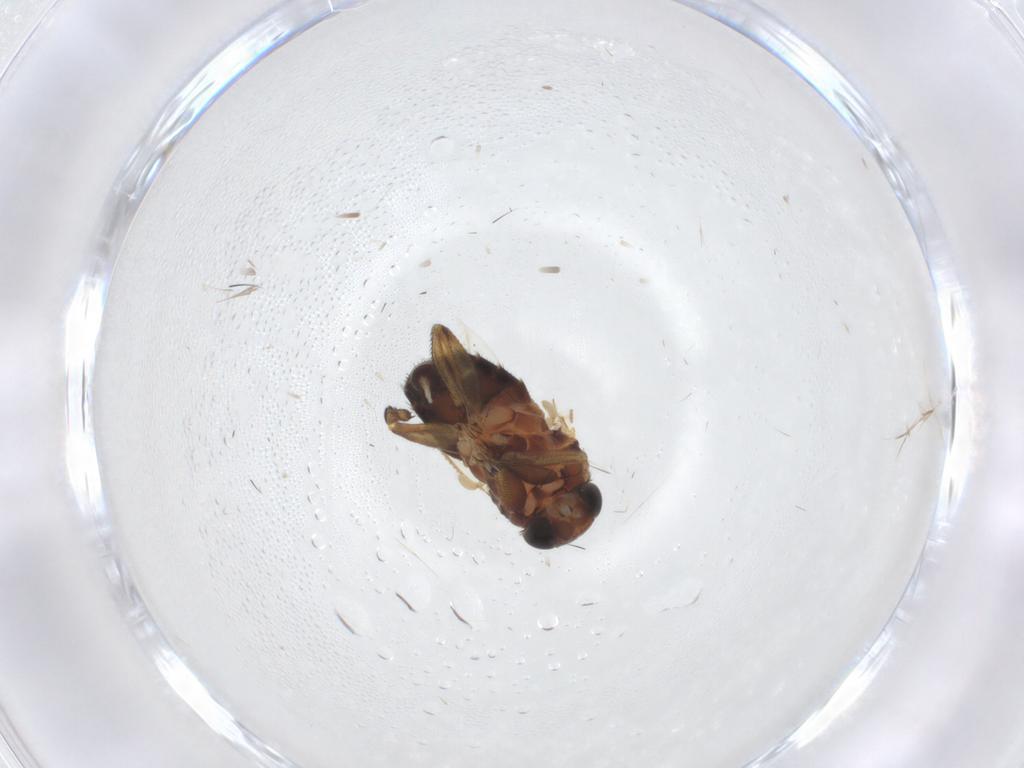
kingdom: Animalia
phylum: Arthropoda
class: Insecta
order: Diptera
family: Phoridae
